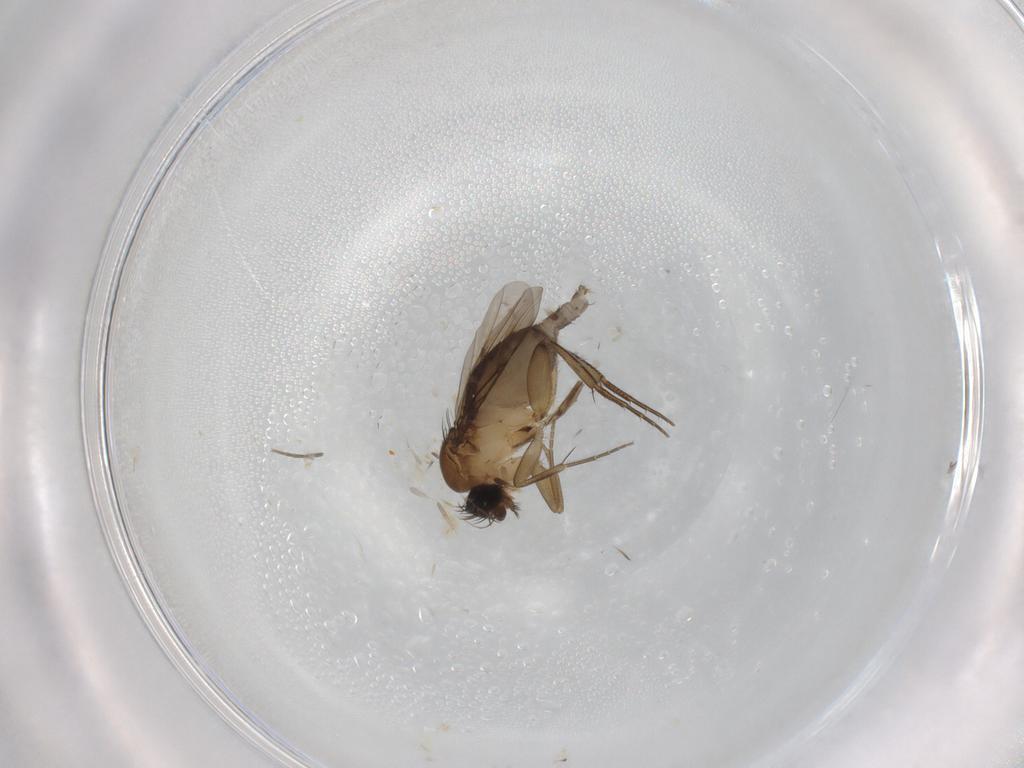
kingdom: Animalia
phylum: Arthropoda
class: Insecta
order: Diptera
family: Phoridae
